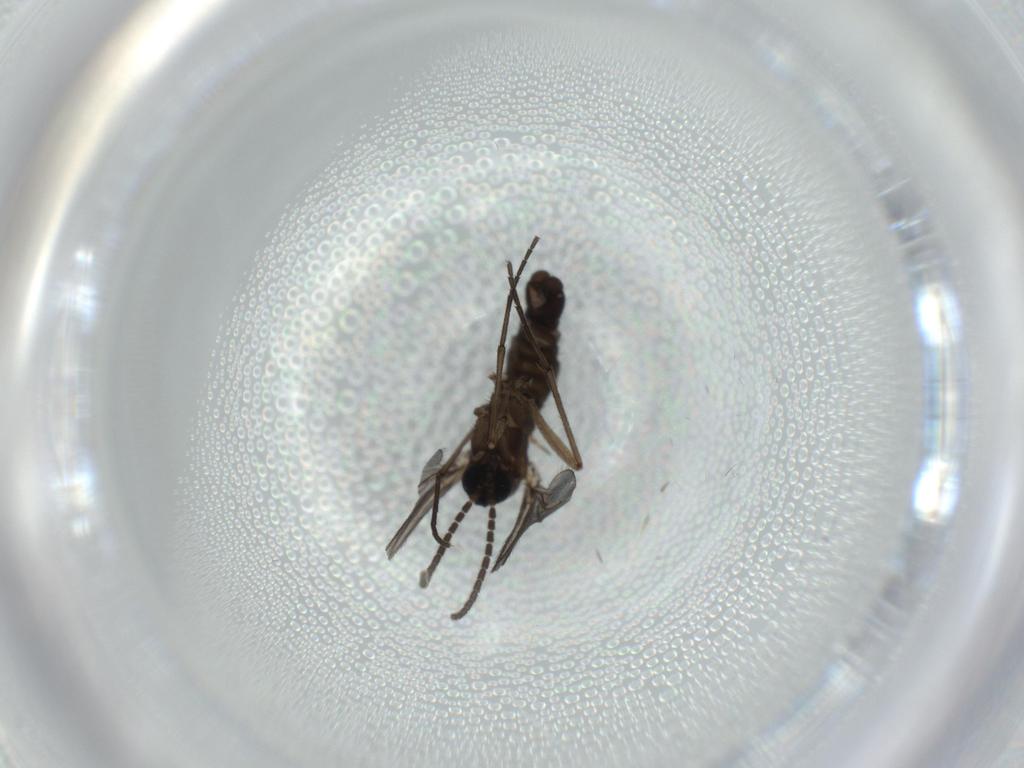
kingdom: Animalia
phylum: Arthropoda
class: Insecta
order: Diptera
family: Sciaridae
